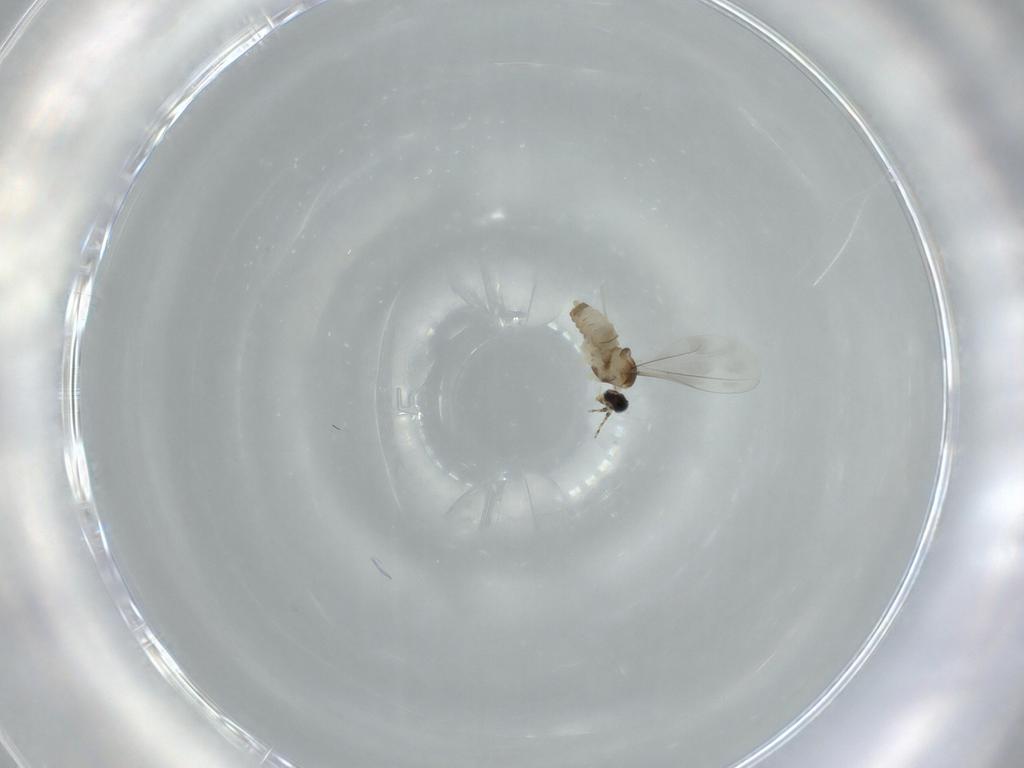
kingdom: Animalia
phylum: Arthropoda
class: Insecta
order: Diptera
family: Cecidomyiidae
